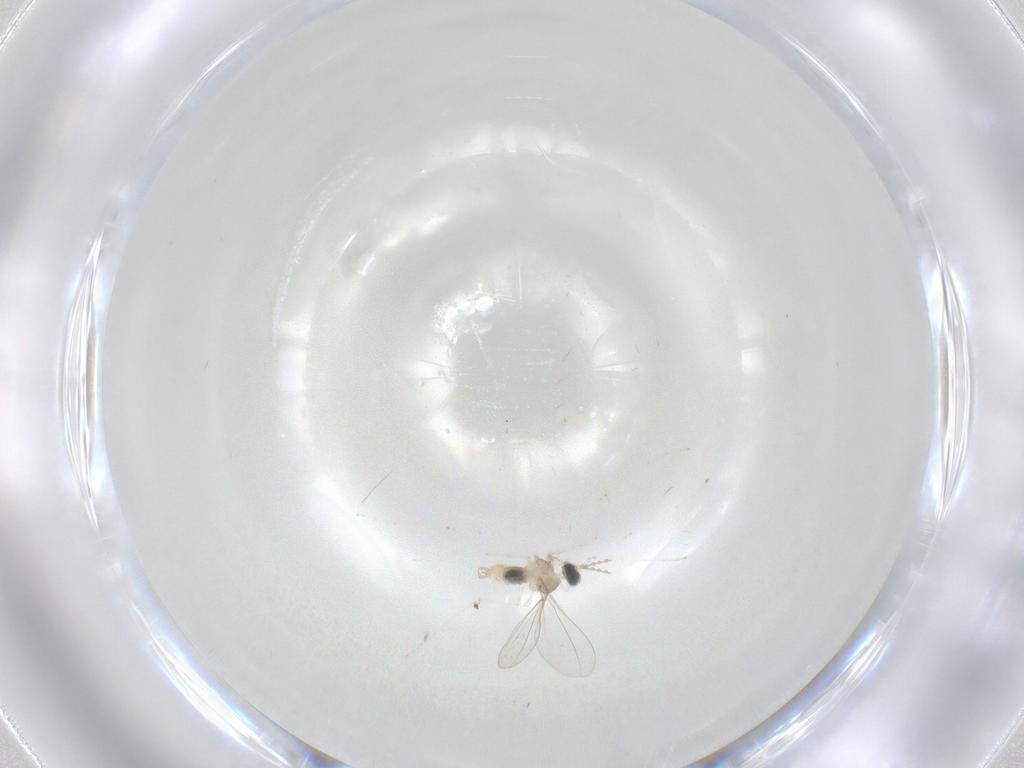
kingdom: Animalia
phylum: Arthropoda
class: Insecta
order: Diptera
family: Cecidomyiidae
